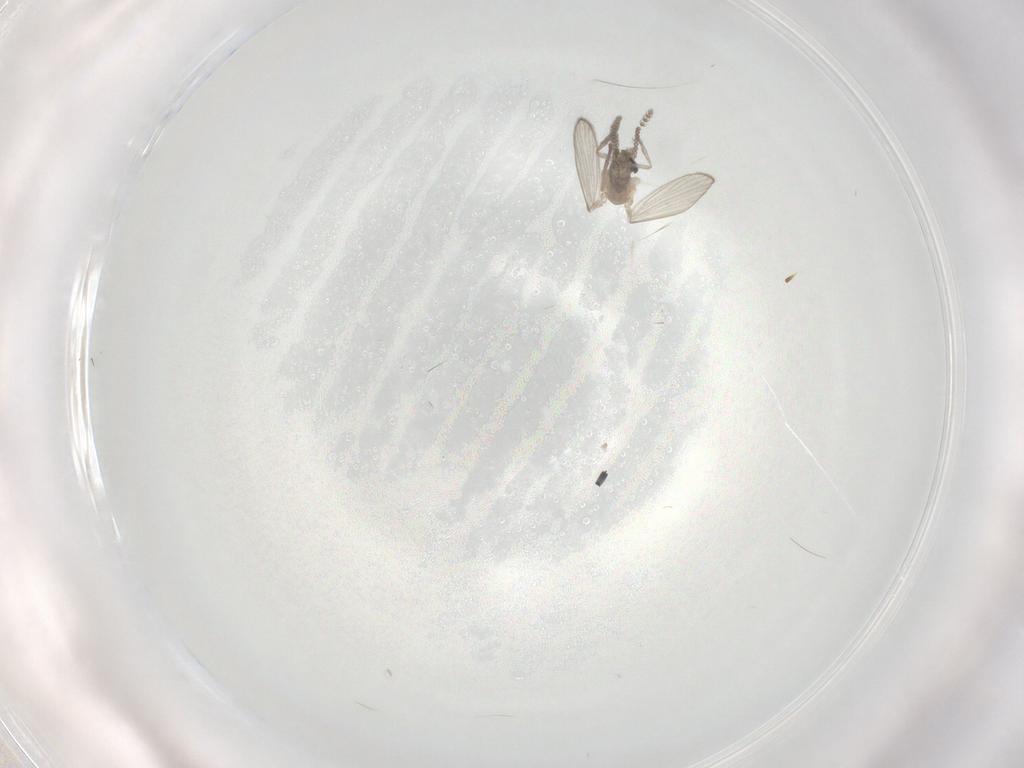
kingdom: Animalia
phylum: Arthropoda
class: Insecta
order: Diptera
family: Psychodidae
